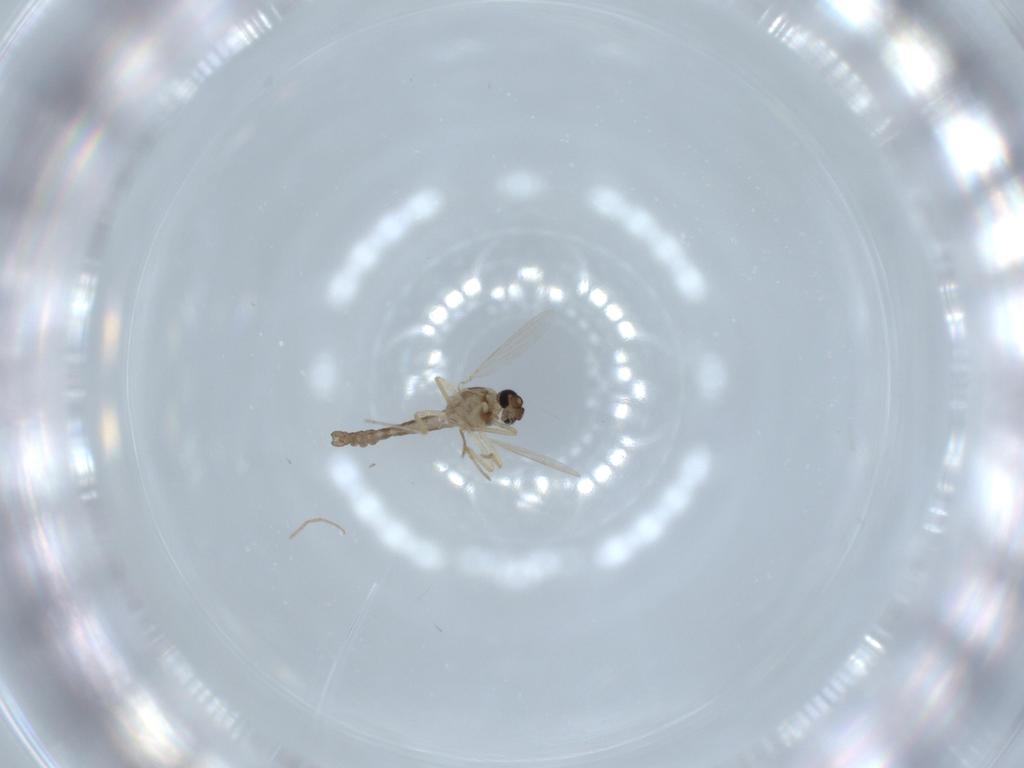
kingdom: Animalia
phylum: Arthropoda
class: Insecta
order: Diptera
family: Ceratopogonidae
